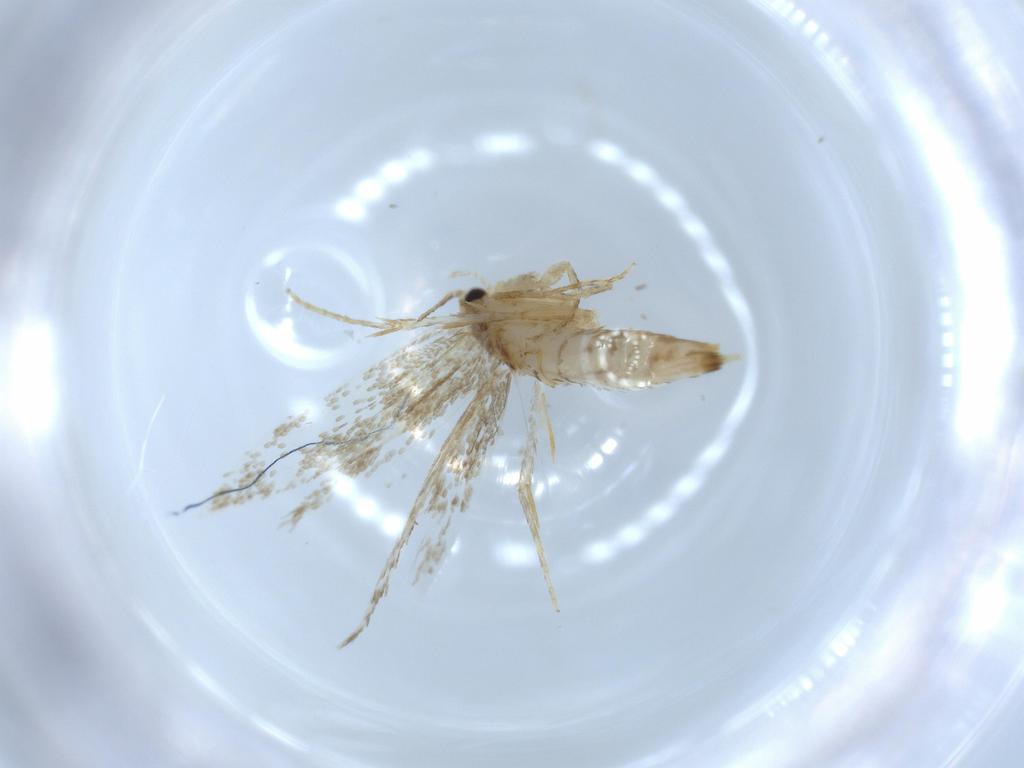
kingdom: Animalia
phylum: Arthropoda
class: Insecta
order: Lepidoptera
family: Tineidae
